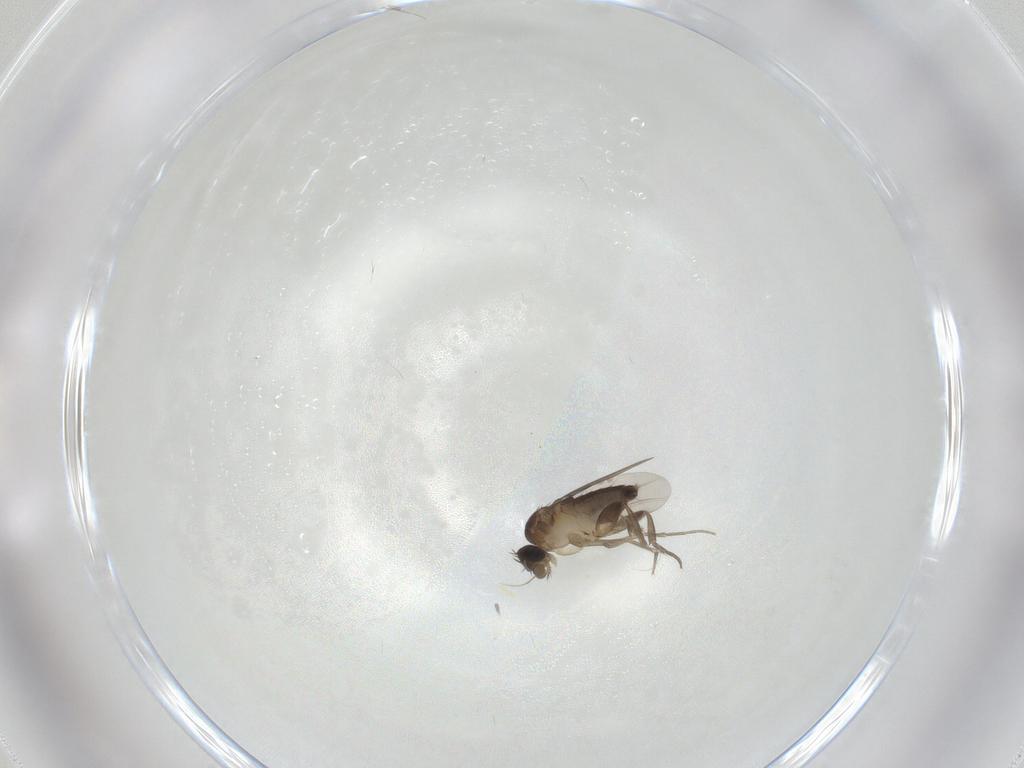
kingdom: Animalia
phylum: Arthropoda
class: Insecta
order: Diptera
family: Phoridae
